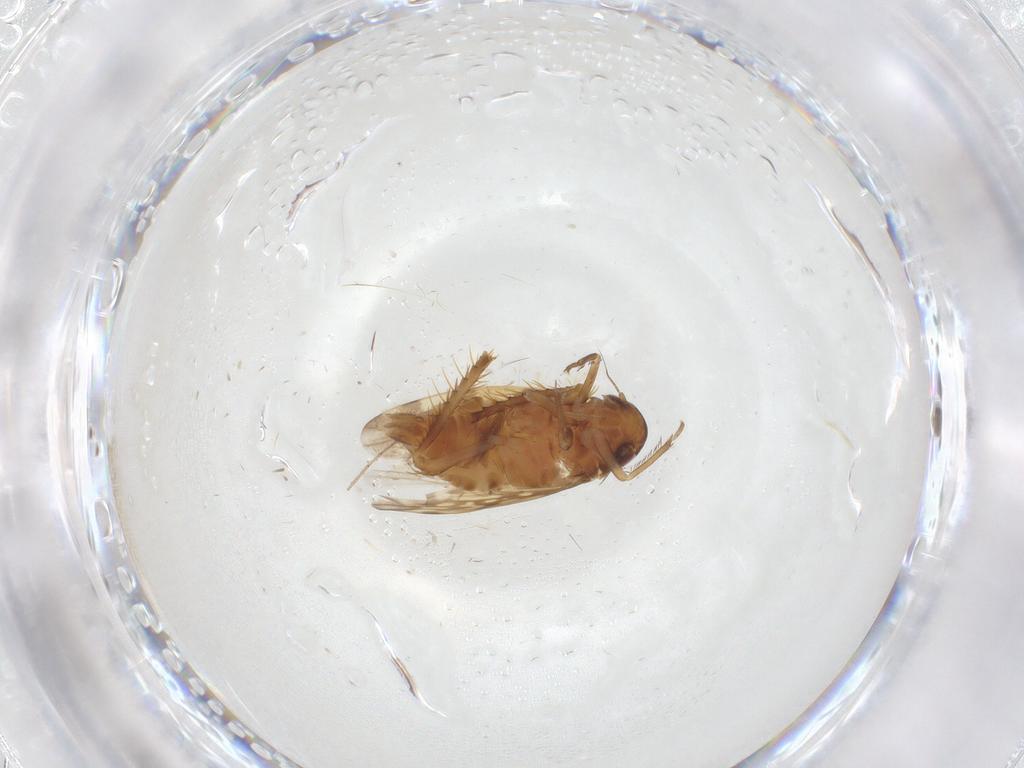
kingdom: Animalia
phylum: Arthropoda
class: Insecta
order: Hemiptera
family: Cicadellidae
